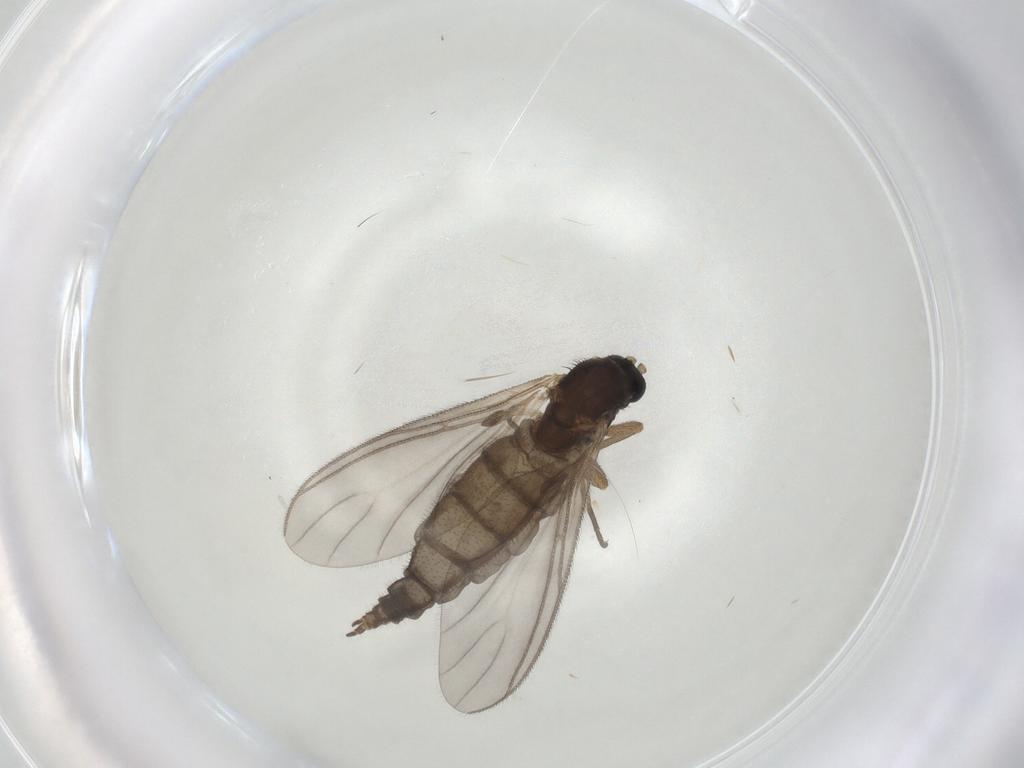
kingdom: Animalia
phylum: Arthropoda
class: Insecta
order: Diptera
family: Sciaridae
